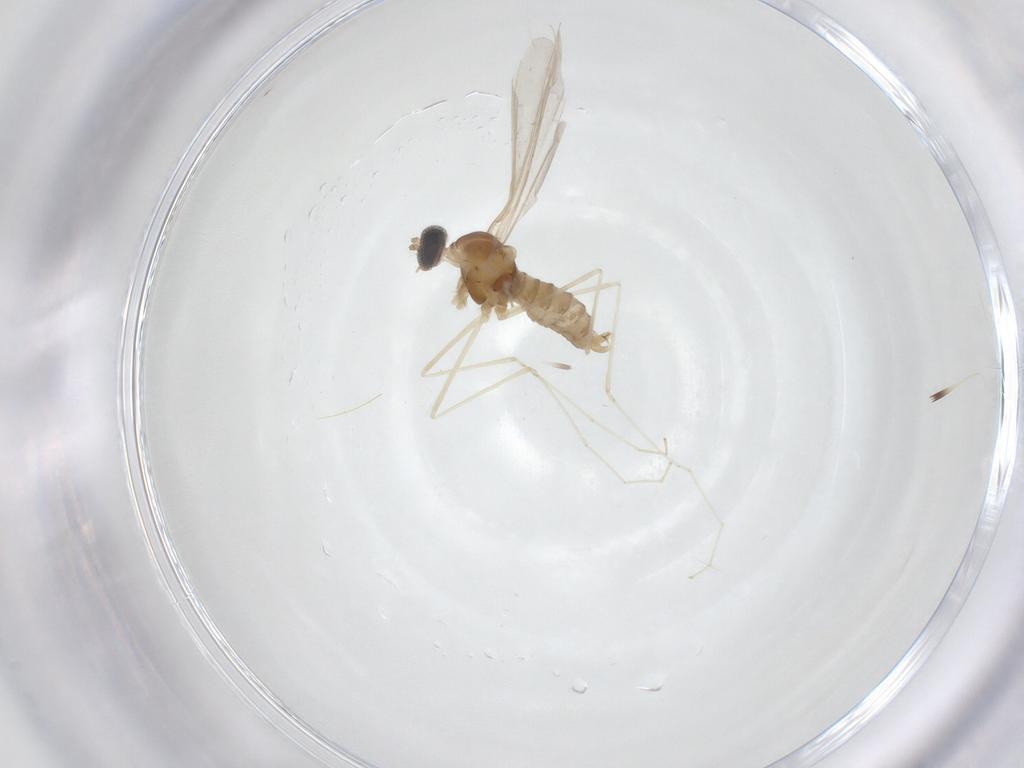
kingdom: Animalia
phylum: Arthropoda
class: Insecta
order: Diptera
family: Cecidomyiidae
